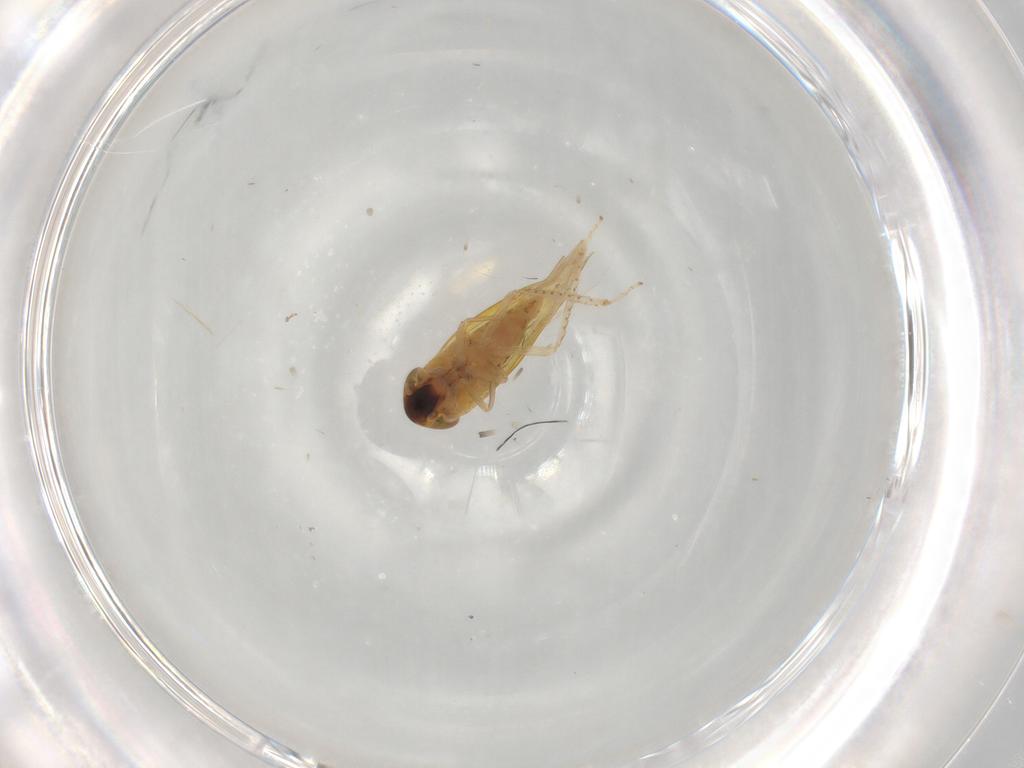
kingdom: Animalia
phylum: Arthropoda
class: Insecta
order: Hemiptera
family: Cicadellidae
